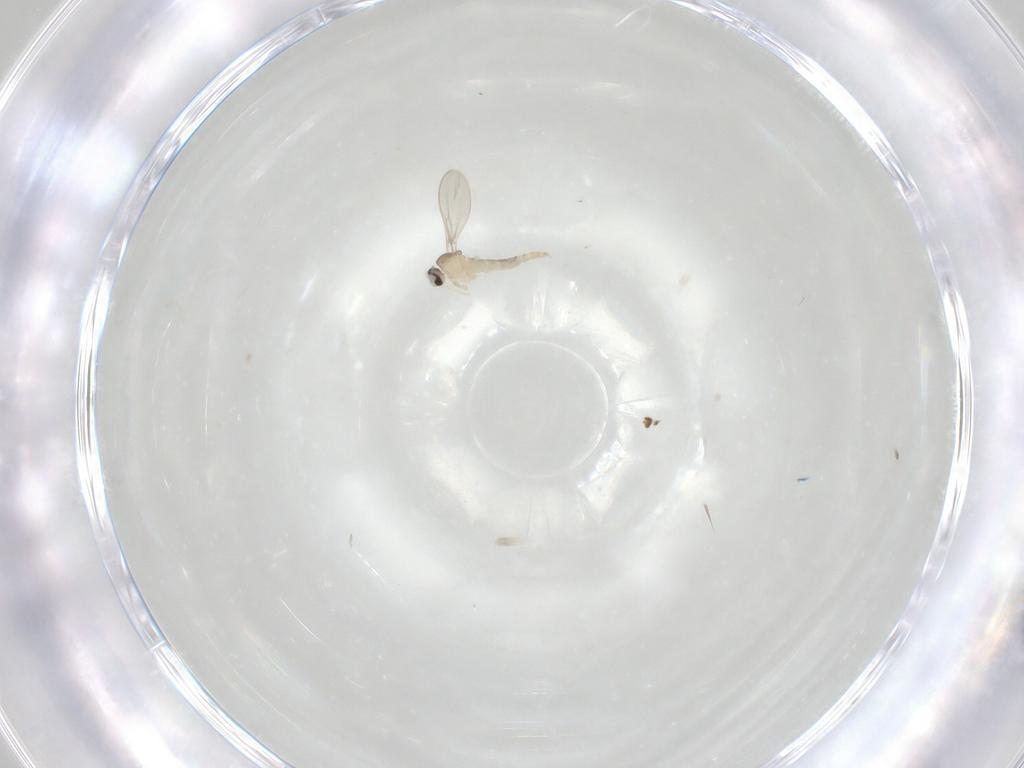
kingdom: Animalia
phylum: Arthropoda
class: Insecta
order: Diptera
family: Cecidomyiidae
